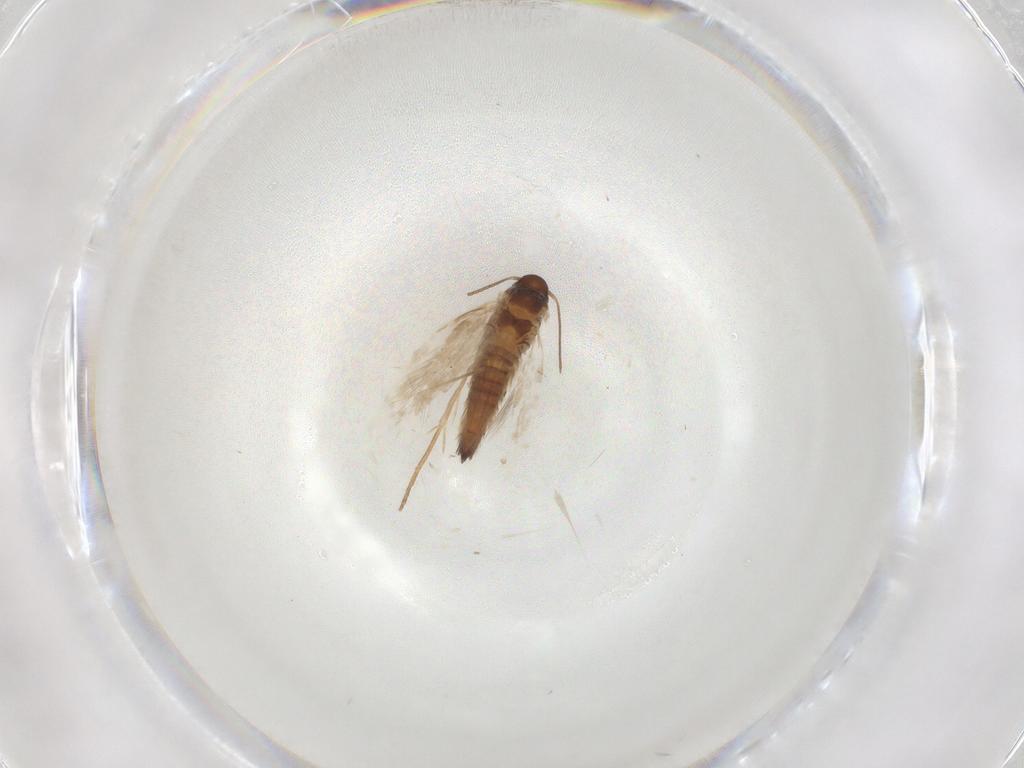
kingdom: Animalia
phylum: Arthropoda
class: Insecta
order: Lepidoptera
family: Heliozelidae
